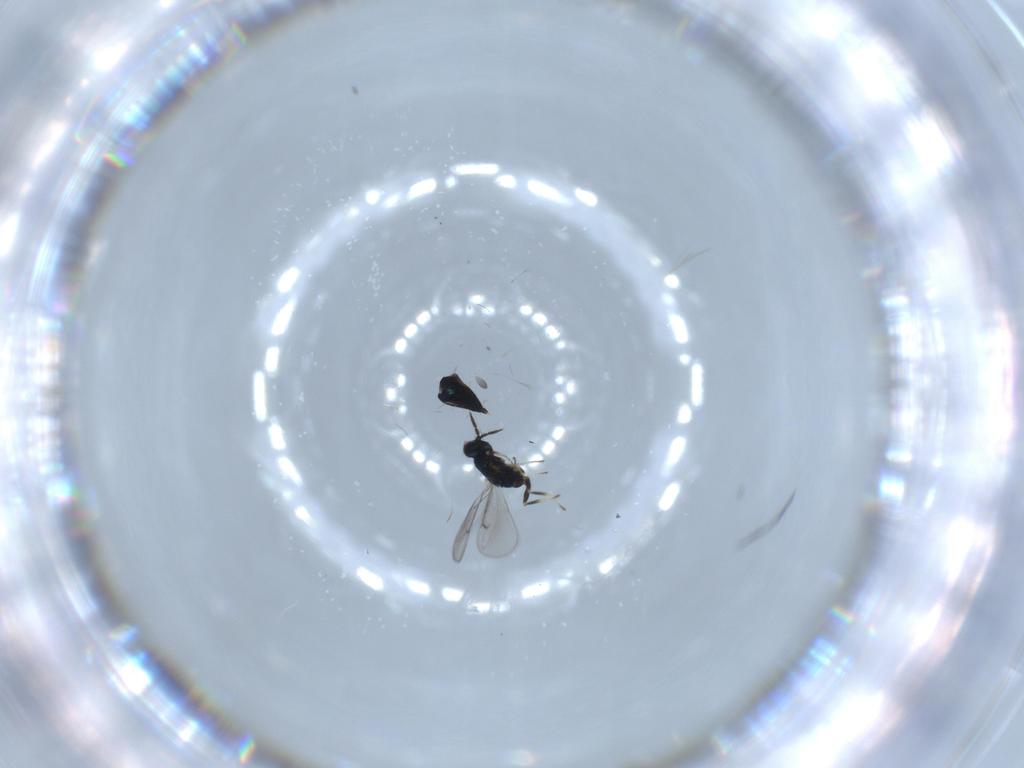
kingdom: Animalia
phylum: Arthropoda
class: Insecta
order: Hymenoptera
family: Eulophidae
